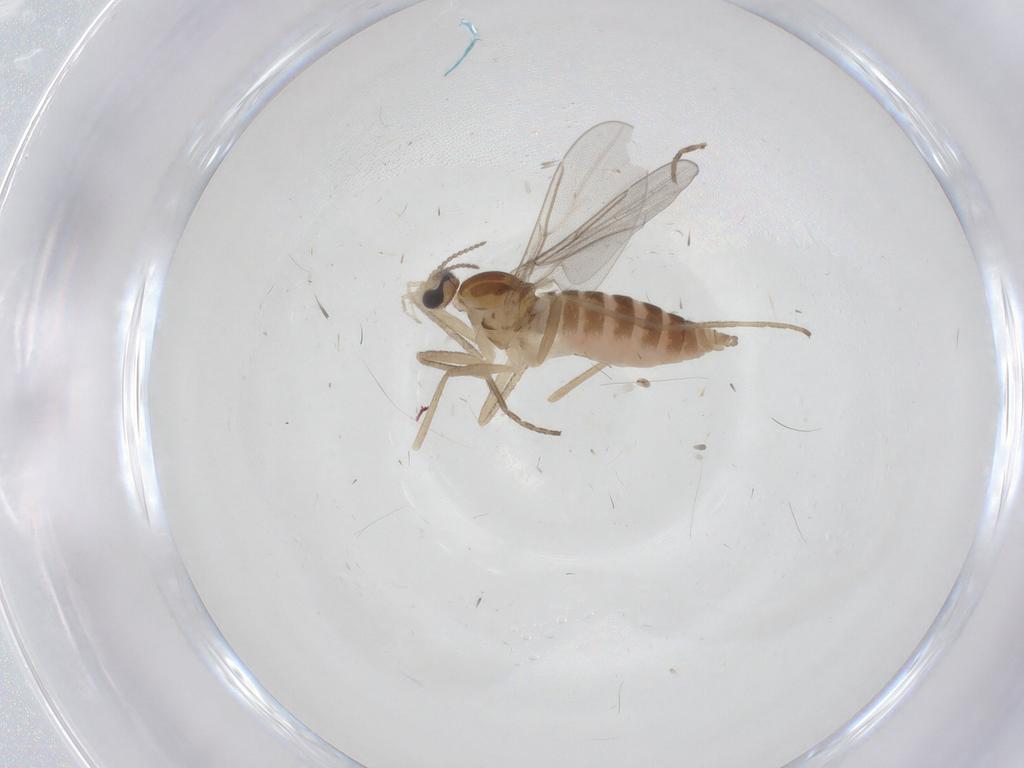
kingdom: Animalia
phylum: Arthropoda
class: Insecta
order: Diptera
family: Cecidomyiidae
